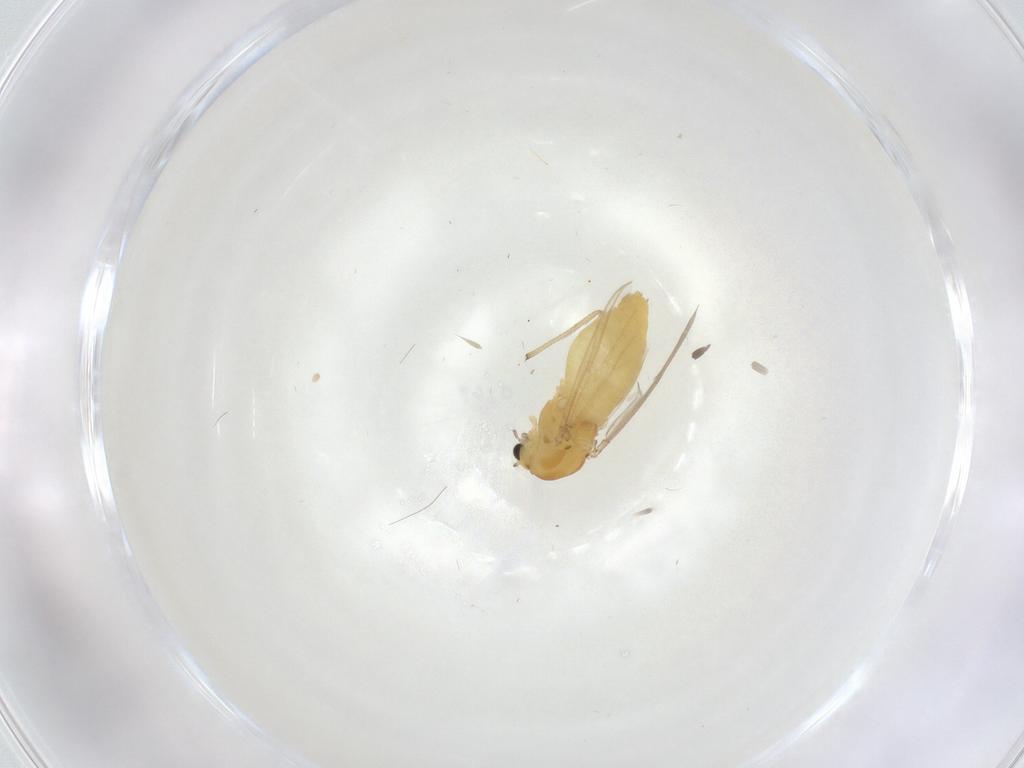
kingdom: Animalia
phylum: Arthropoda
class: Insecta
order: Diptera
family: Chironomidae
